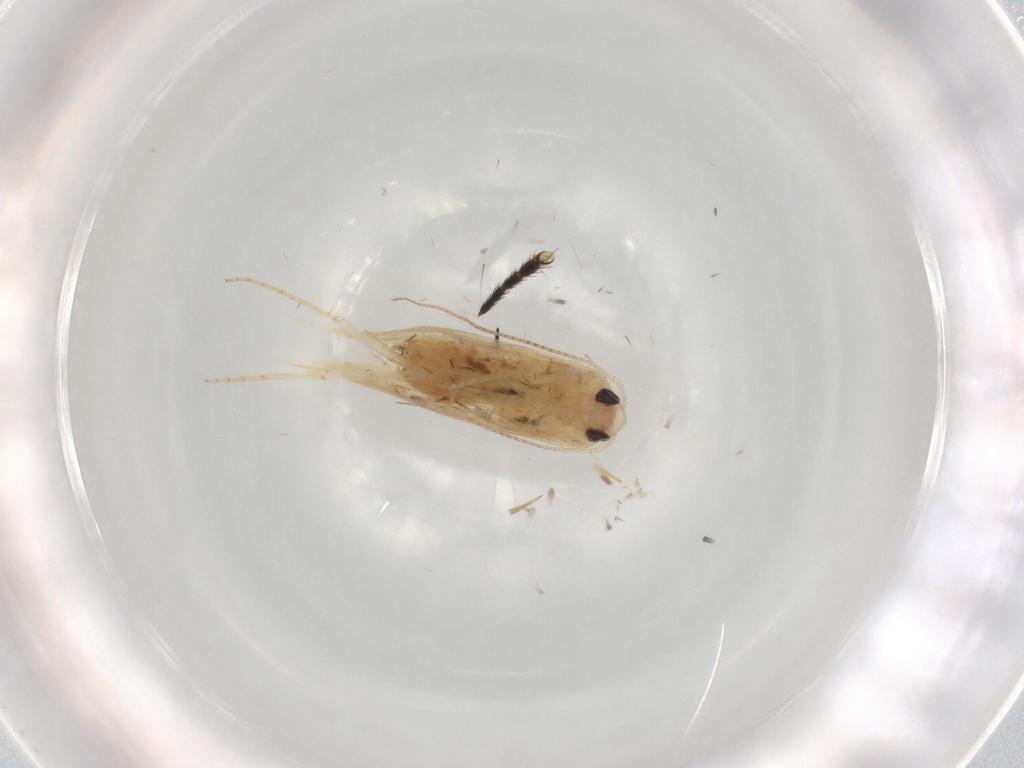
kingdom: Animalia
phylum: Arthropoda
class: Insecta
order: Lepidoptera
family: Noctuidae
